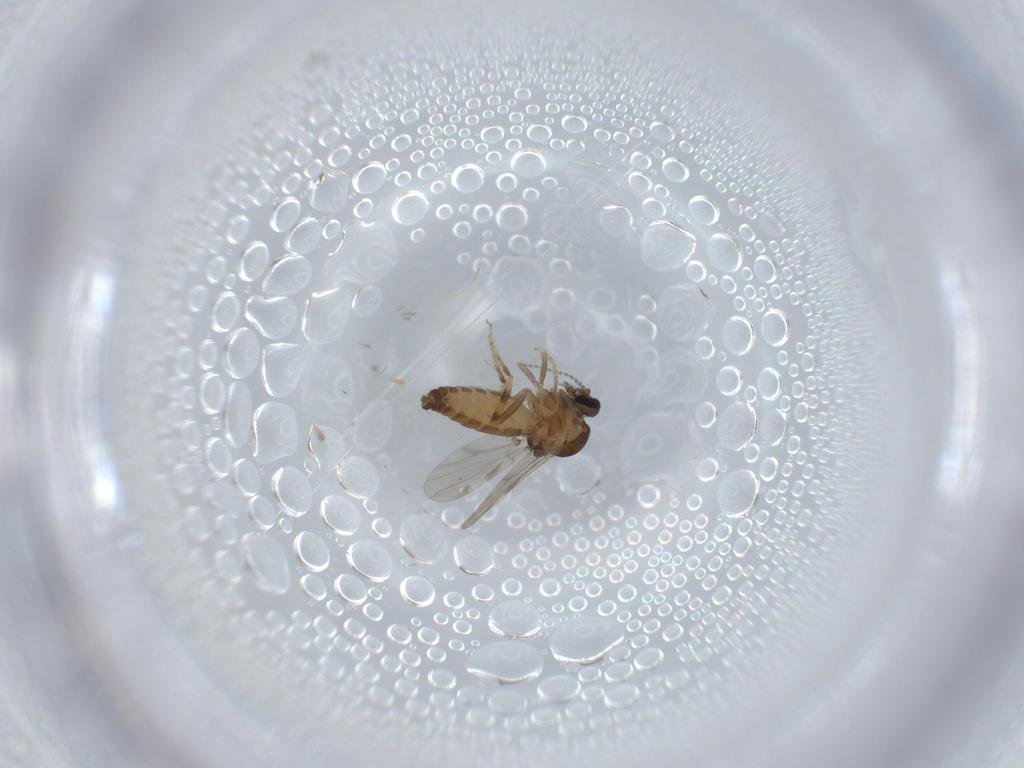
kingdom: Animalia
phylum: Arthropoda
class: Insecta
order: Diptera
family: Ceratopogonidae
